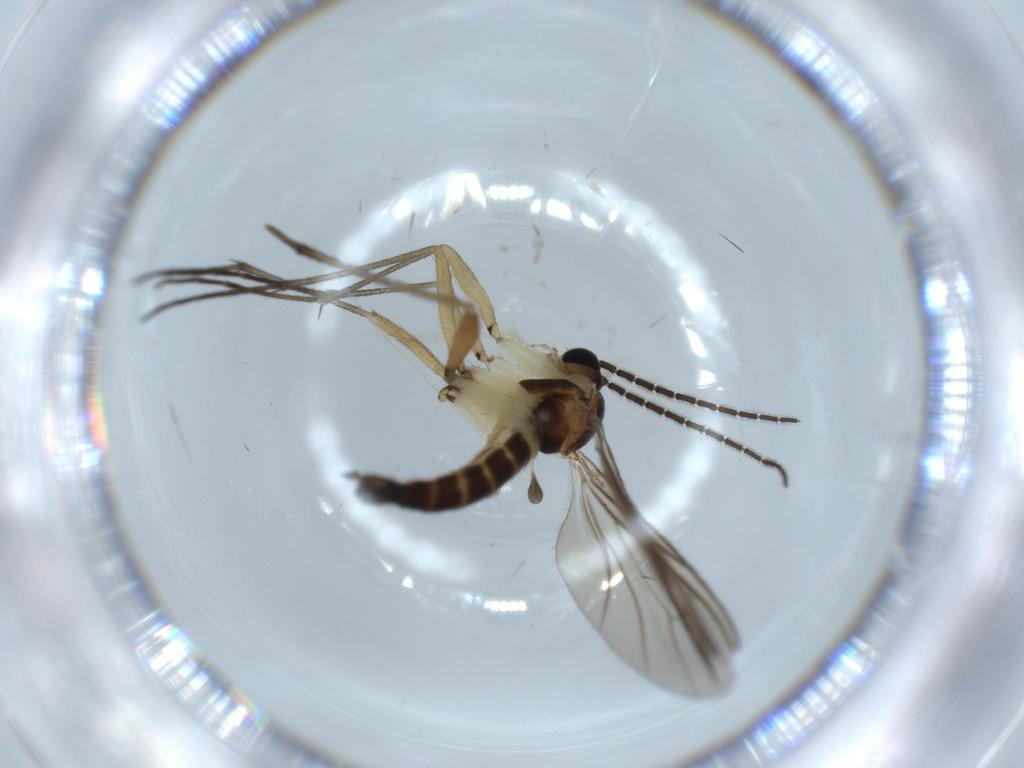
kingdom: Animalia
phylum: Arthropoda
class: Insecta
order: Diptera
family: Sciaridae
